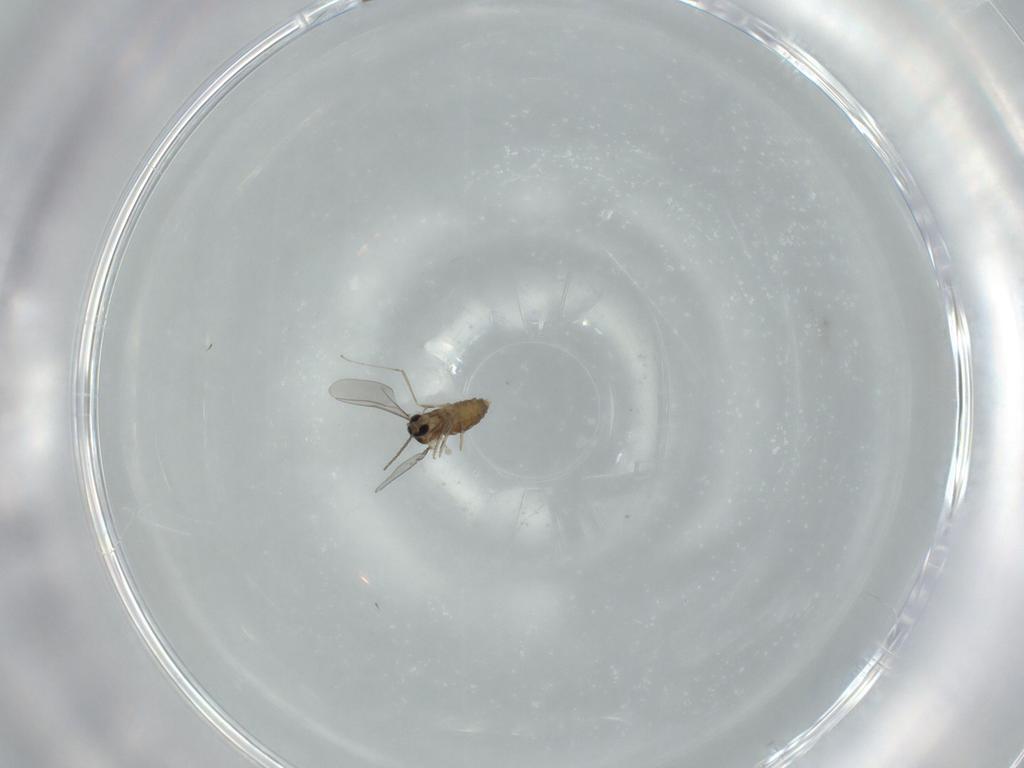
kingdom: Animalia
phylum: Arthropoda
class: Insecta
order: Diptera
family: Cecidomyiidae
